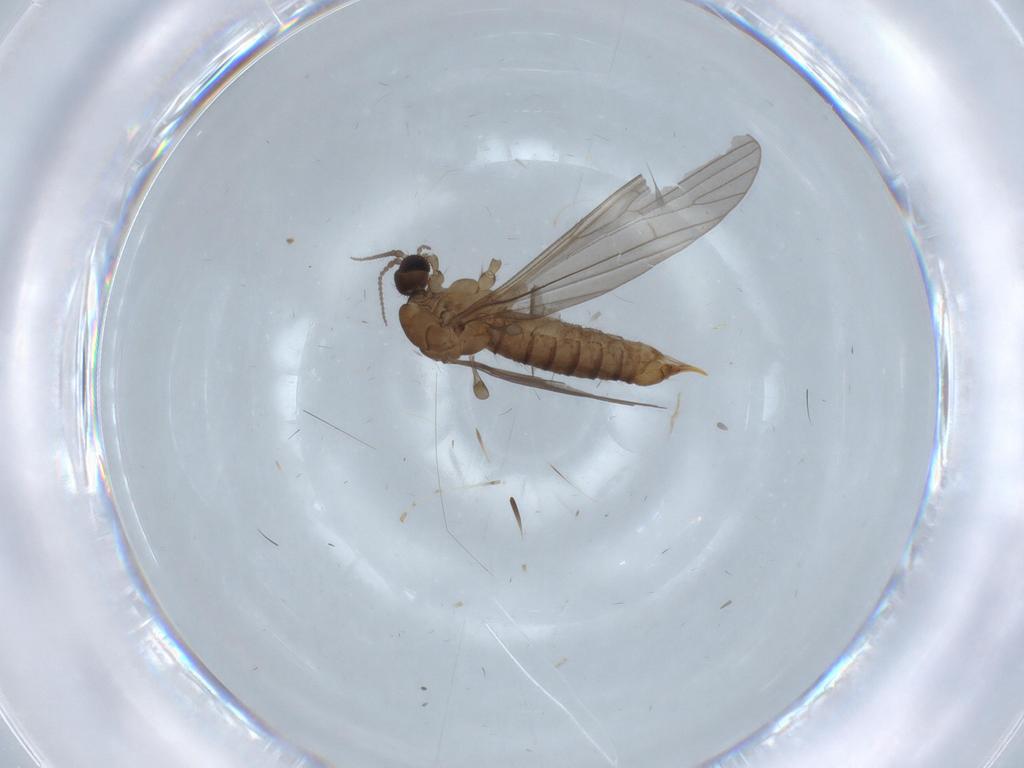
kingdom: Animalia
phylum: Arthropoda
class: Insecta
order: Diptera
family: Limoniidae
